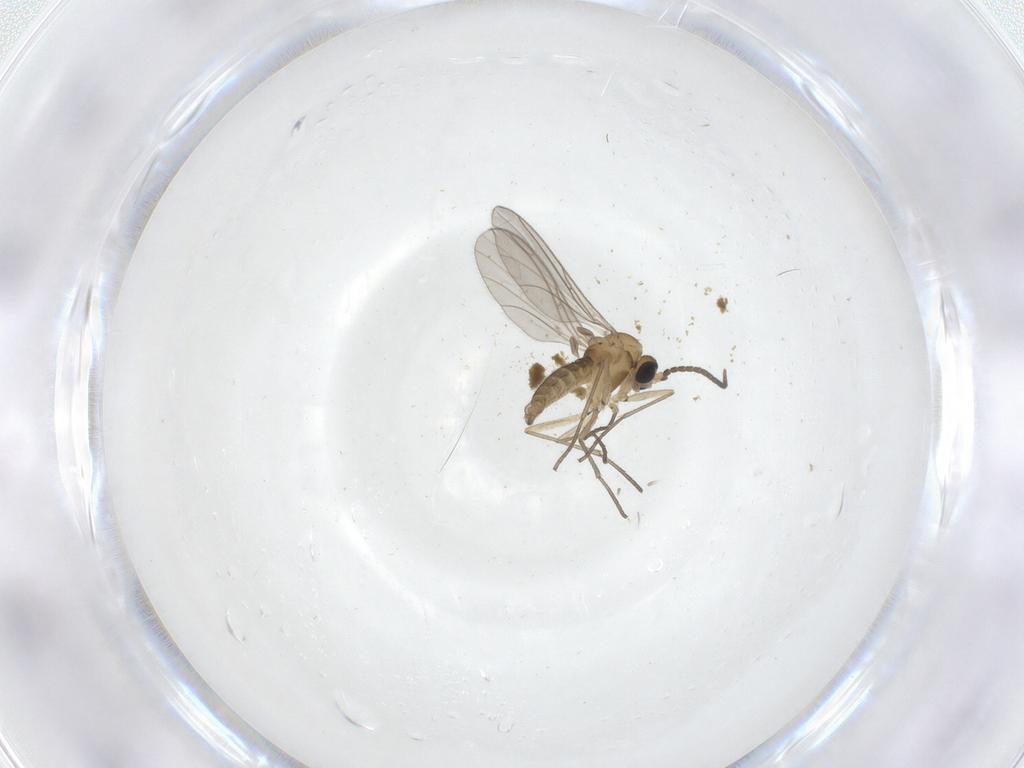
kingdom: Animalia
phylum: Arthropoda
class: Insecta
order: Diptera
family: Sciaridae
